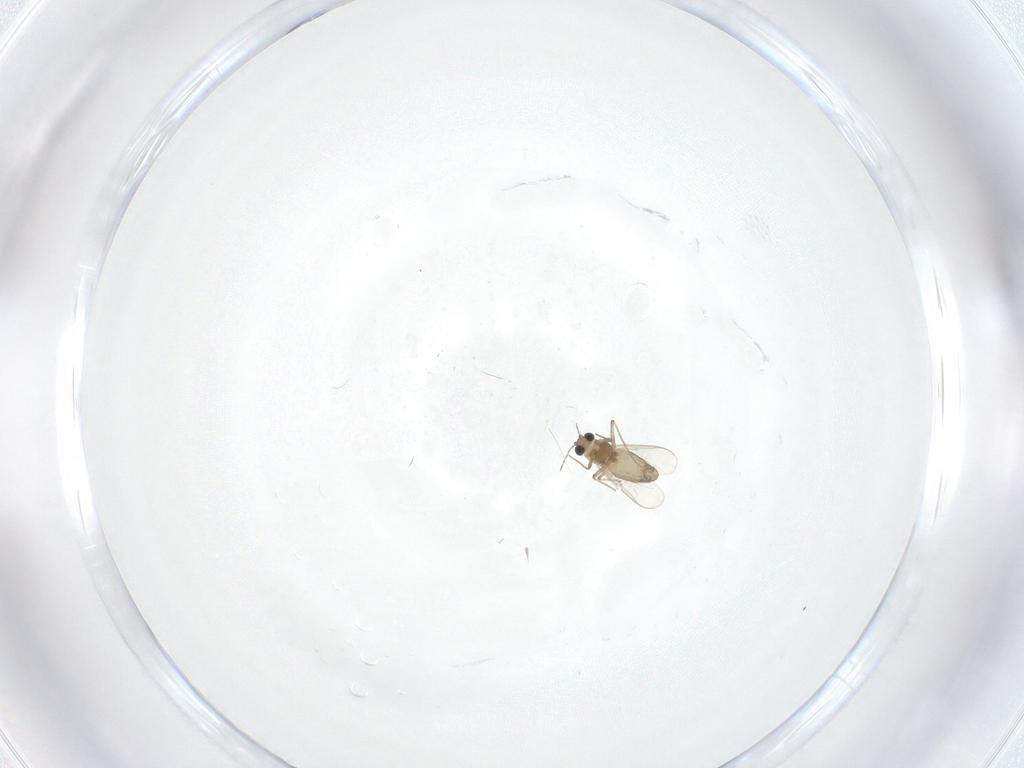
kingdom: Animalia
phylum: Arthropoda
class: Insecta
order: Diptera
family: Chironomidae
